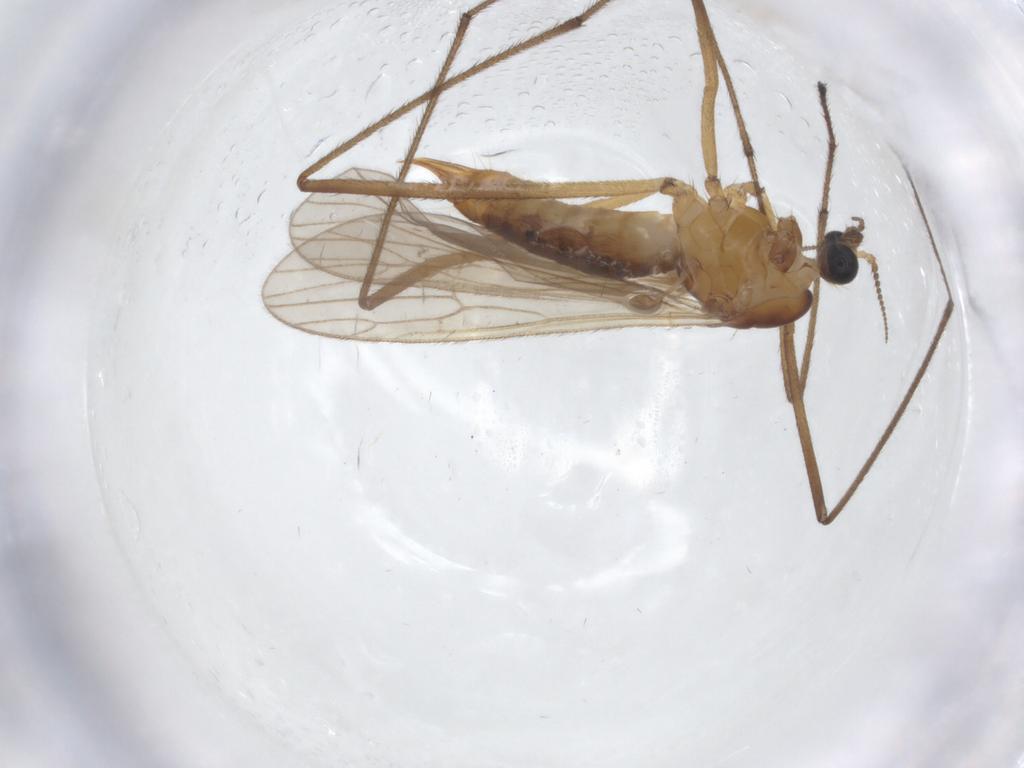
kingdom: Animalia
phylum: Arthropoda
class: Insecta
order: Diptera
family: Limoniidae
